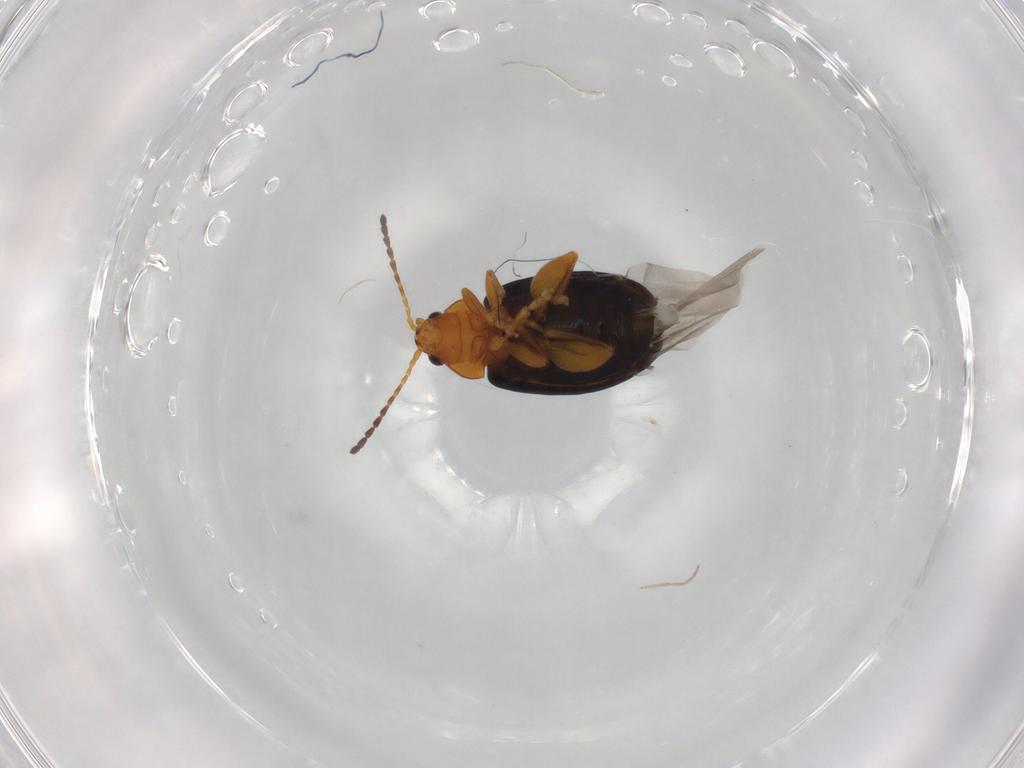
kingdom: Animalia
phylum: Arthropoda
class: Insecta
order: Coleoptera
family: Chrysomelidae
